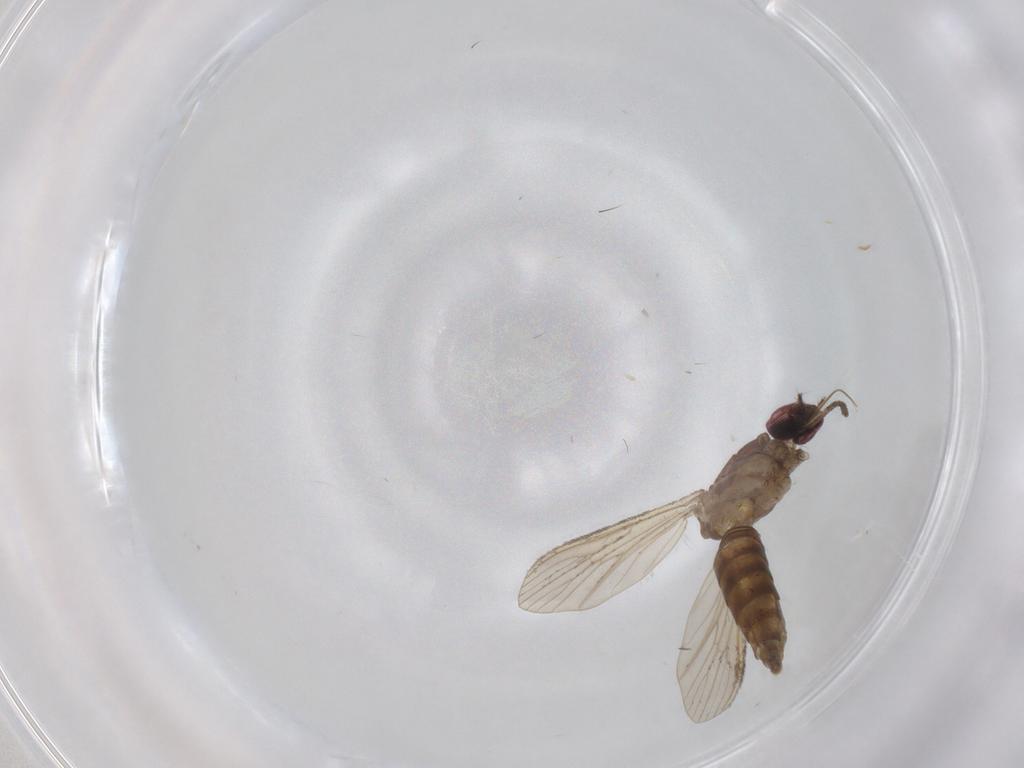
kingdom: Animalia
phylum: Arthropoda
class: Insecta
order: Diptera
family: Culicidae
